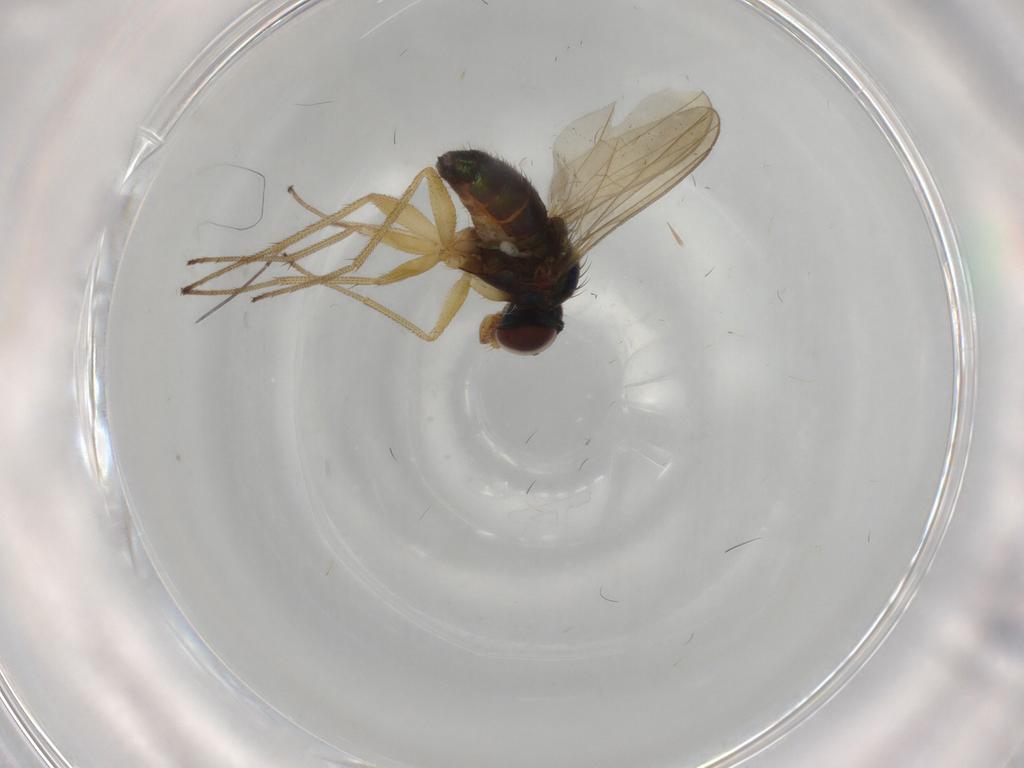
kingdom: Animalia
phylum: Arthropoda
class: Insecta
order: Diptera
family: Dolichopodidae
